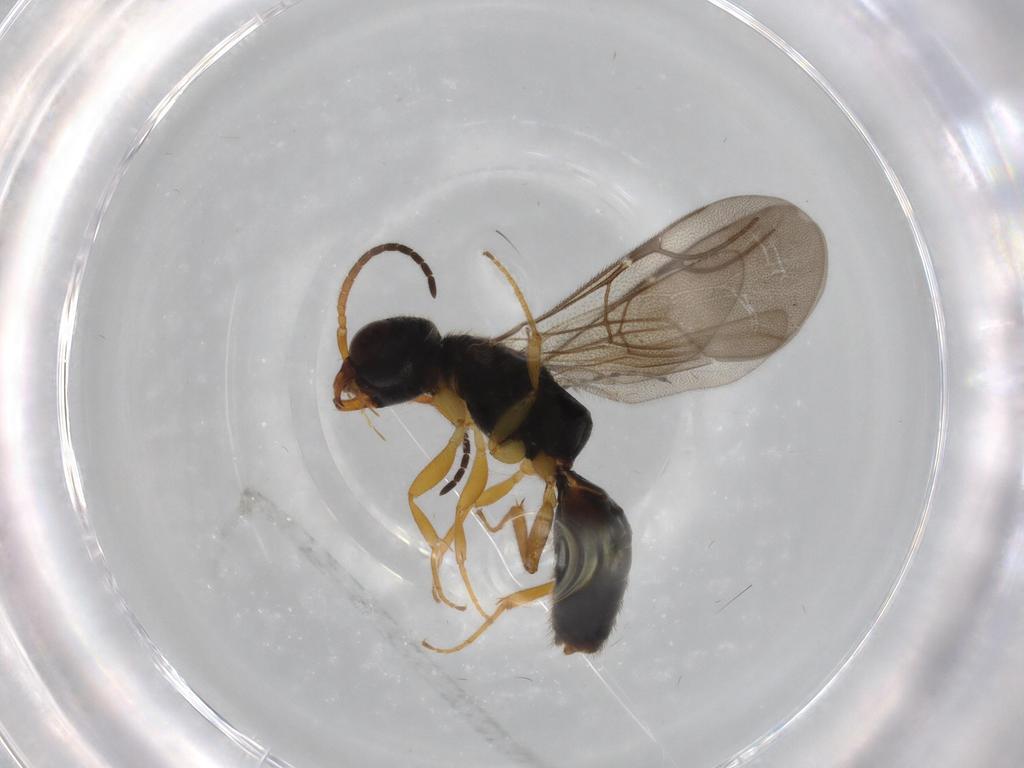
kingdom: Animalia
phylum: Arthropoda
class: Insecta
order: Hymenoptera
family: Bethylidae
